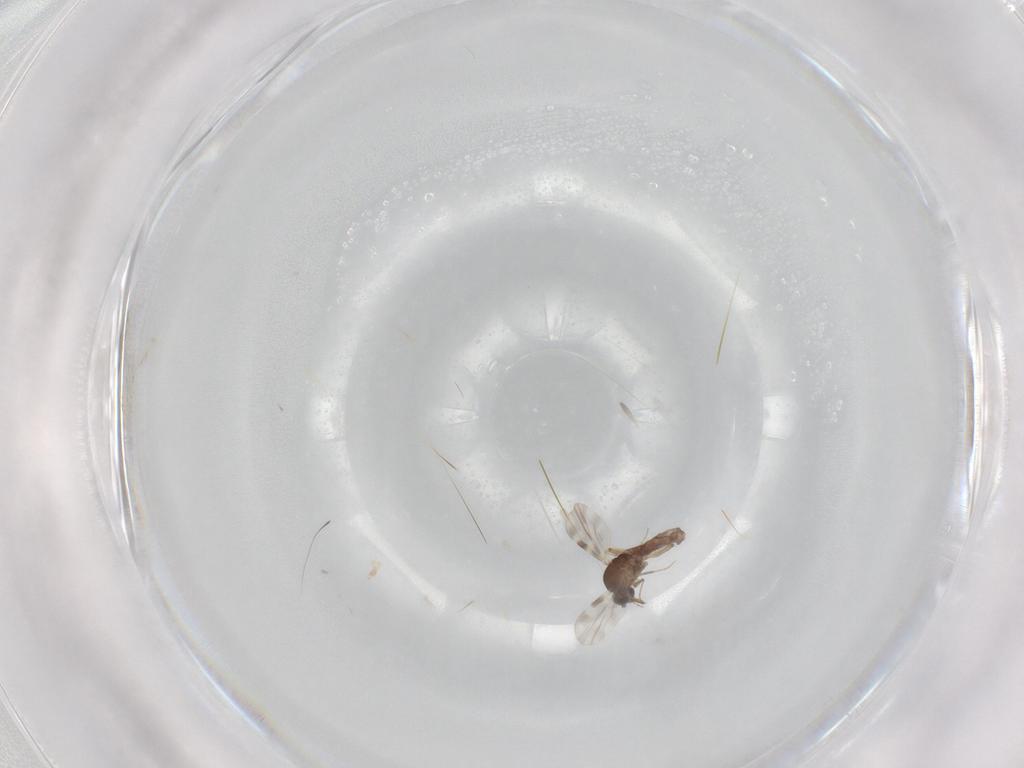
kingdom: Animalia
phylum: Arthropoda
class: Insecta
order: Diptera
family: Chironomidae
